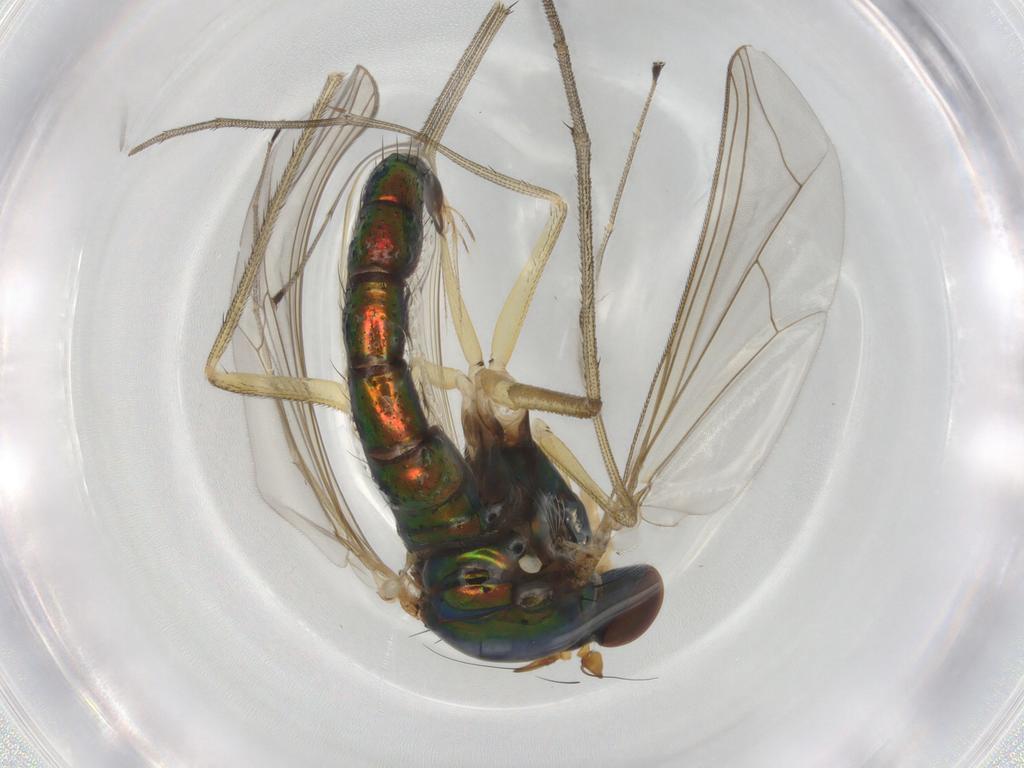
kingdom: Animalia
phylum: Arthropoda
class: Insecta
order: Diptera
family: Dolichopodidae
